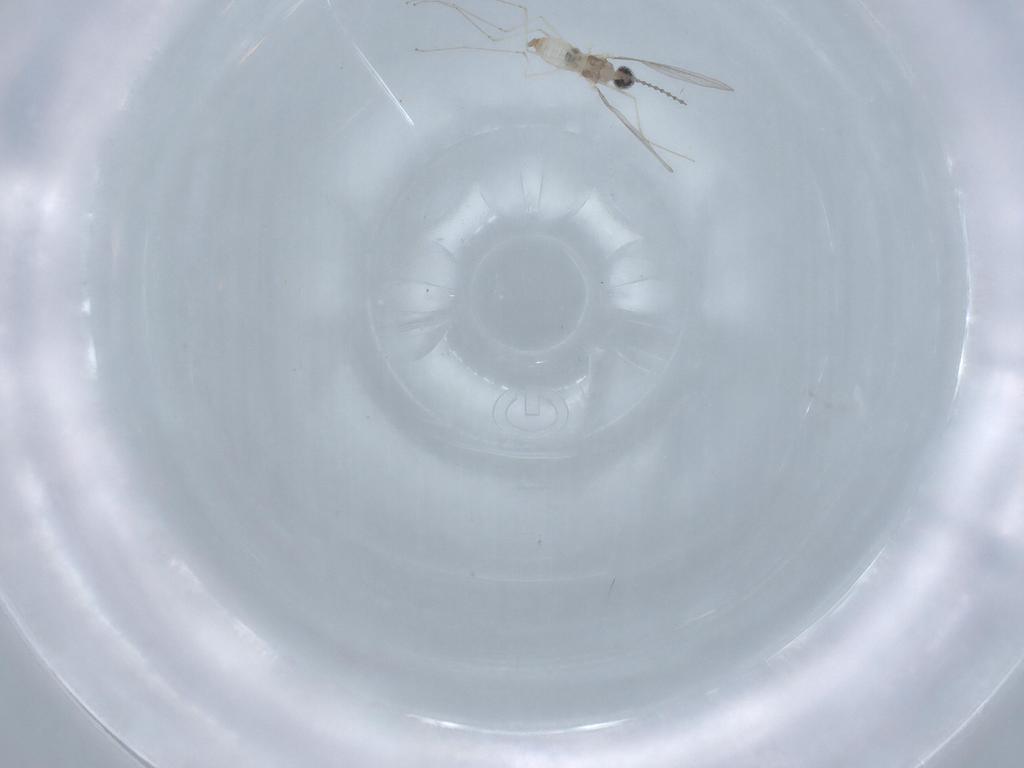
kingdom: Animalia
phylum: Arthropoda
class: Insecta
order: Diptera
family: Cecidomyiidae
